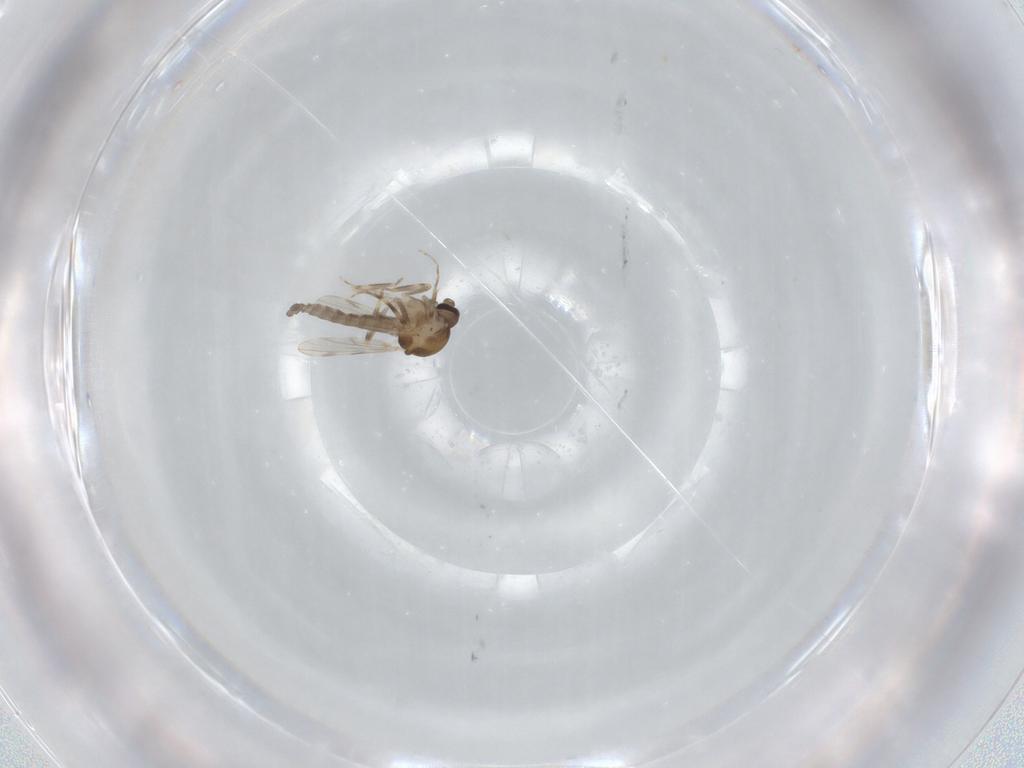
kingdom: Animalia
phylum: Arthropoda
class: Insecta
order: Diptera
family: Ceratopogonidae
